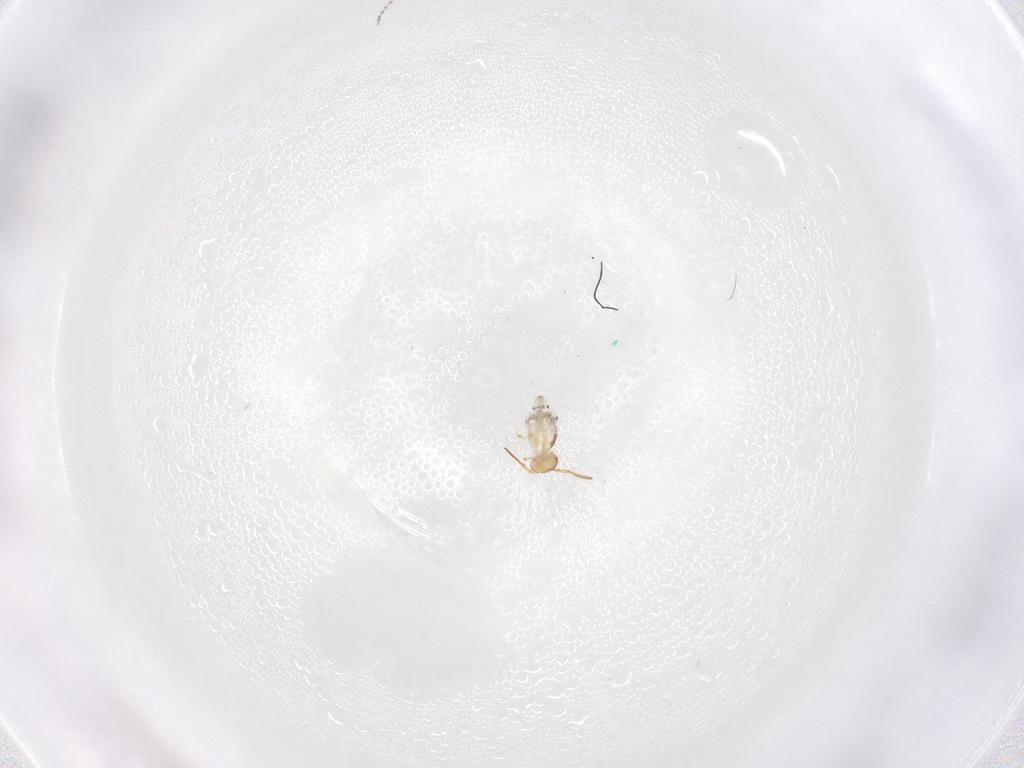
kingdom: Animalia
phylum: Arthropoda
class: Collembola
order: Symphypleona
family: Bourletiellidae
